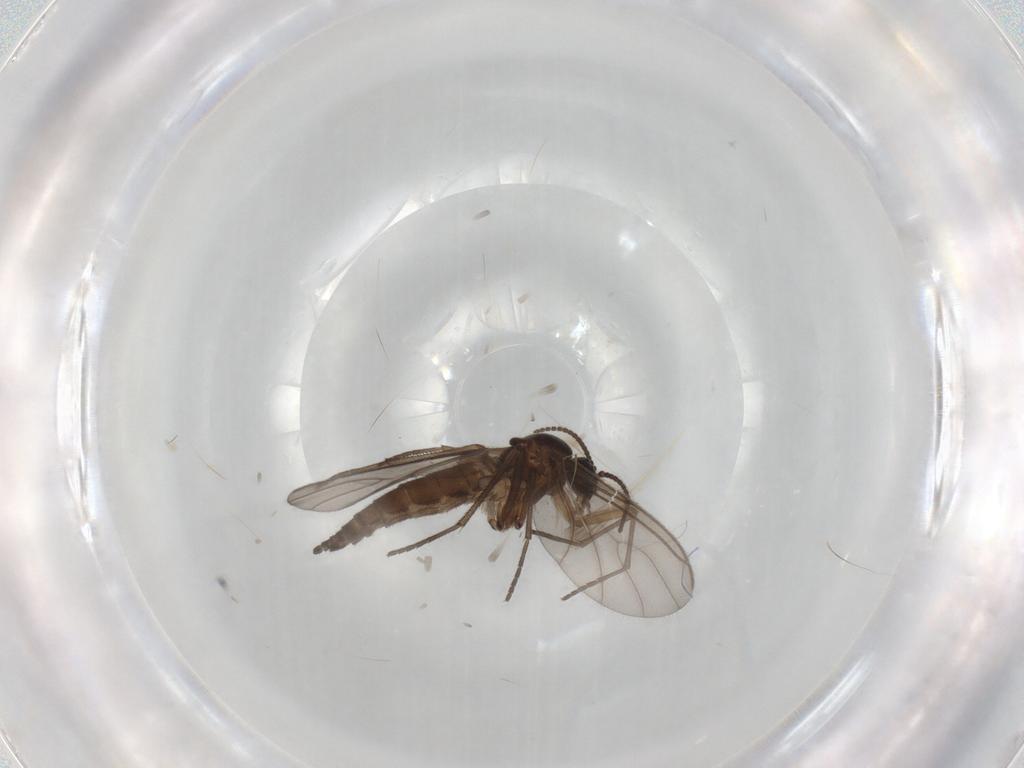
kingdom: Animalia
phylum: Arthropoda
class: Insecta
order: Diptera
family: Sciaridae
